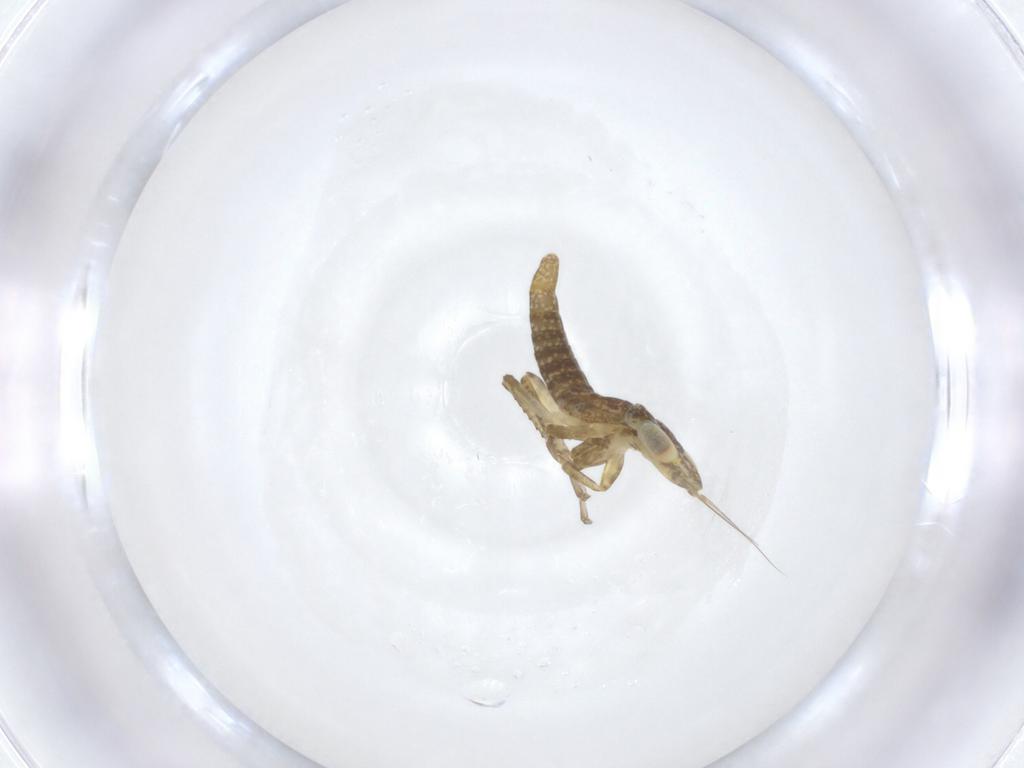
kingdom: Animalia
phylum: Arthropoda
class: Insecta
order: Hemiptera
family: Cicadellidae
